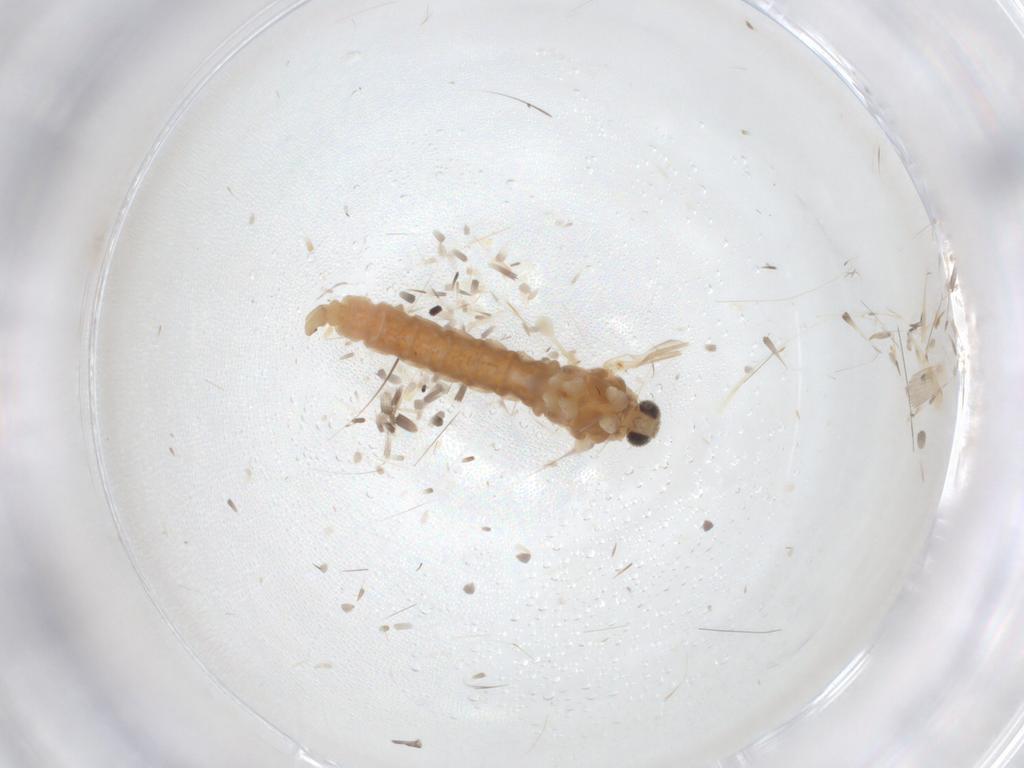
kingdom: Animalia
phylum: Arthropoda
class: Insecta
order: Diptera
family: Cecidomyiidae
